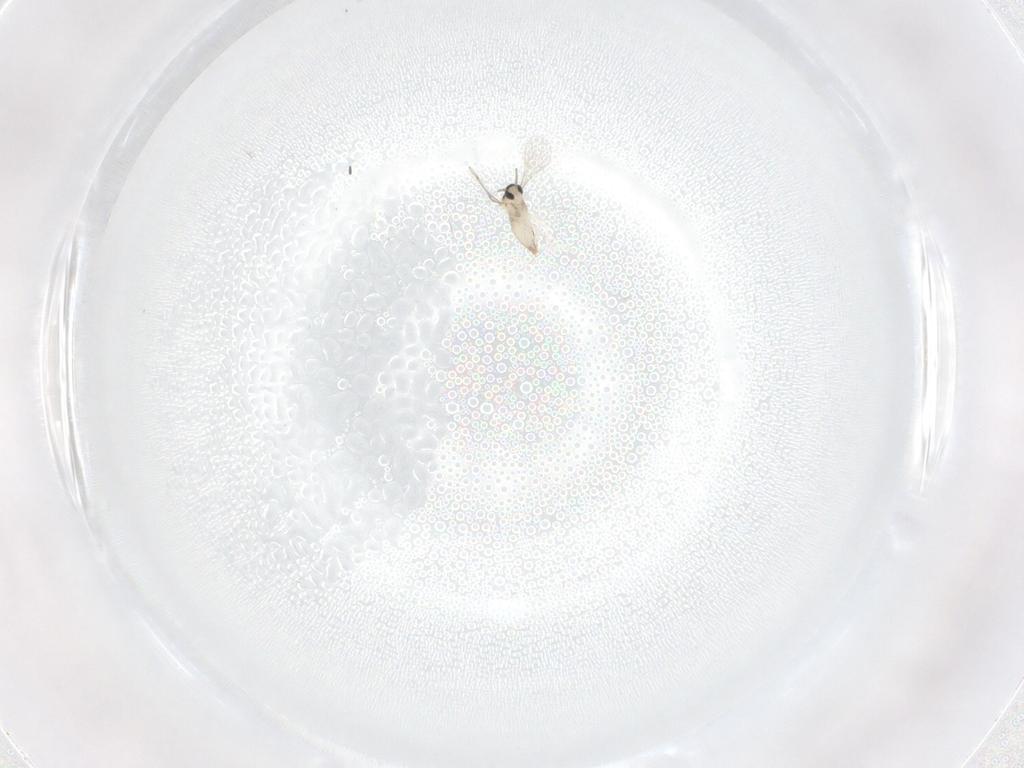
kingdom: Animalia
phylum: Arthropoda
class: Insecta
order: Diptera
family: Cecidomyiidae
